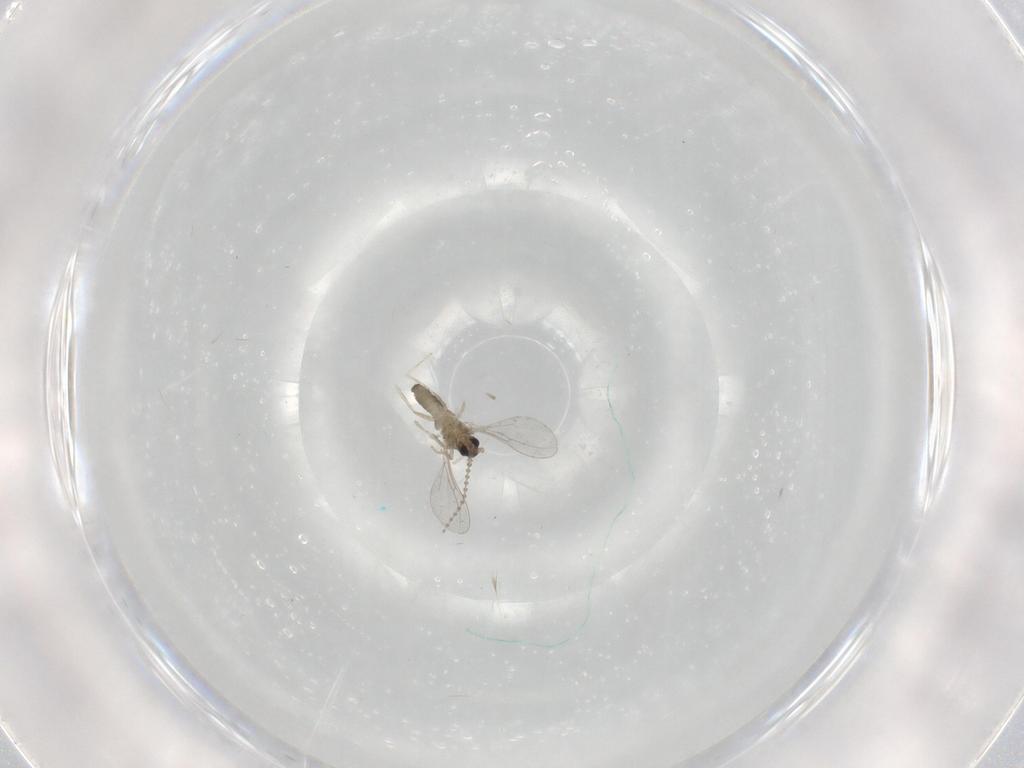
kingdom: Animalia
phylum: Arthropoda
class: Insecta
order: Diptera
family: Cecidomyiidae
